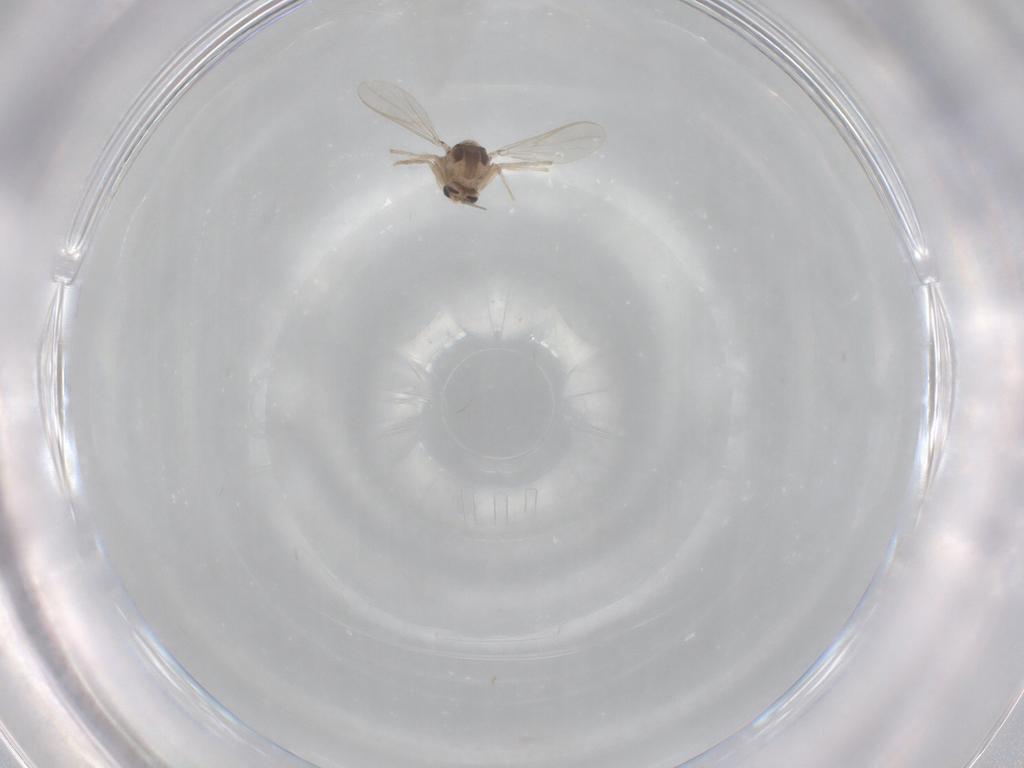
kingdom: Animalia
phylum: Arthropoda
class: Insecta
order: Diptera
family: Chironomidae
